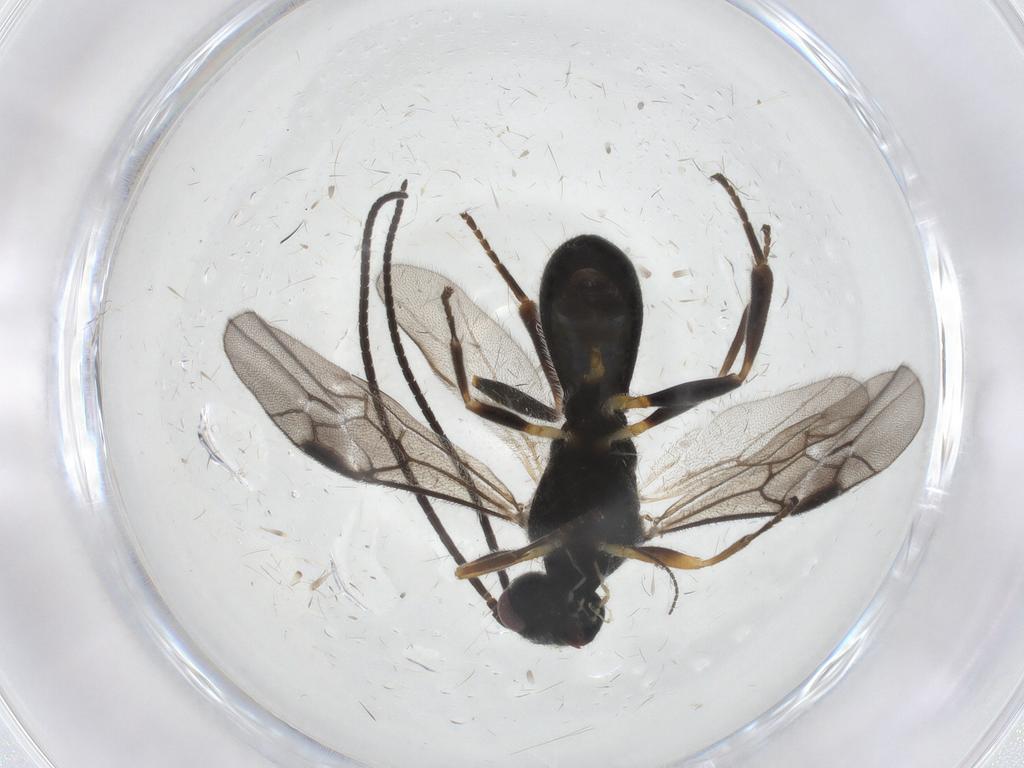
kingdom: Animalia
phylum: Arthropoda
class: Insecta
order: Hymenoptera
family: Braconidae
